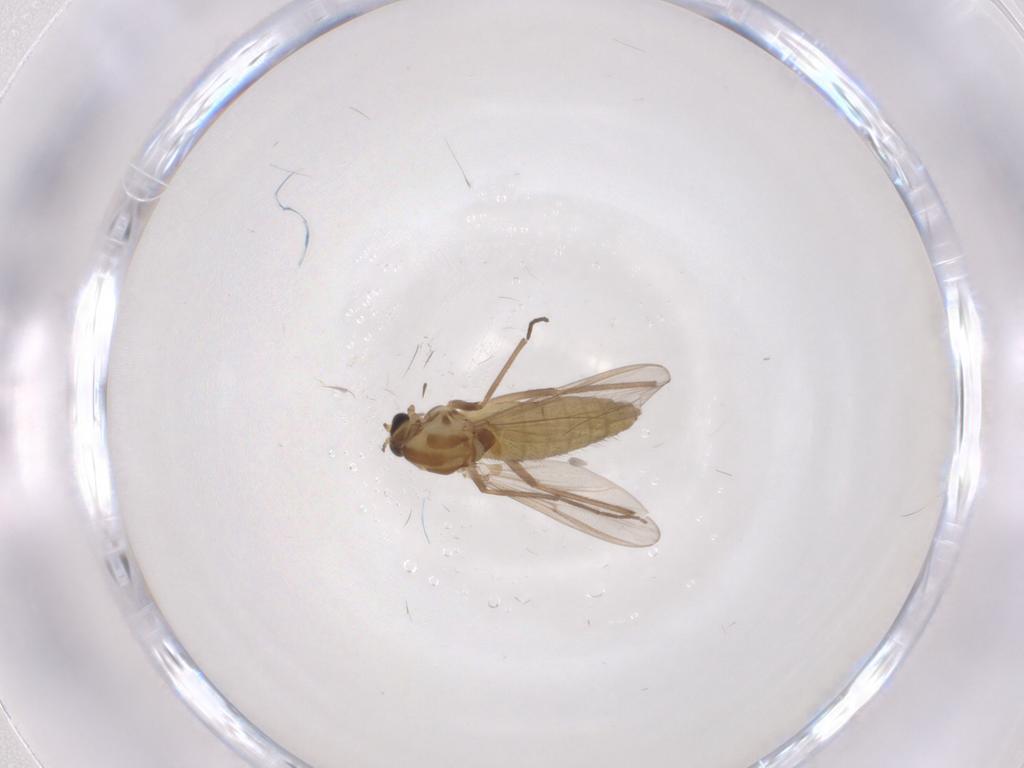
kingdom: Animalia
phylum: Arthropoda
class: Insecta
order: Diptera
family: Chironomidae
